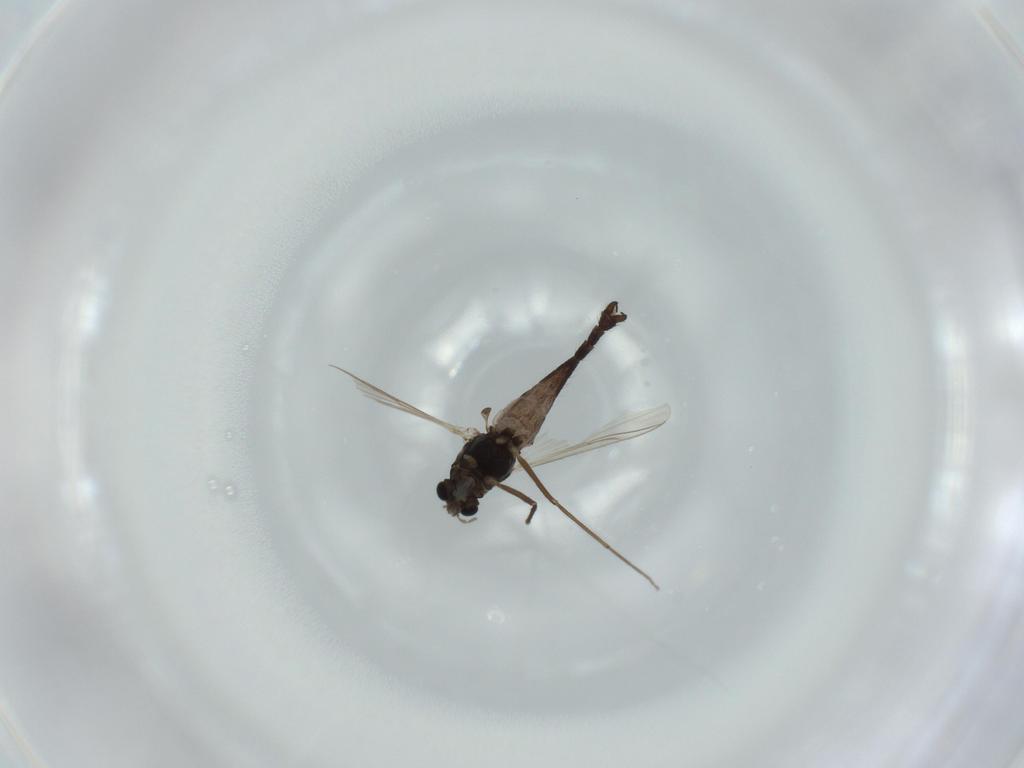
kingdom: Animalia
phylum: Arthropoda
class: Insecta
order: Diptera
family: Chironomidae
